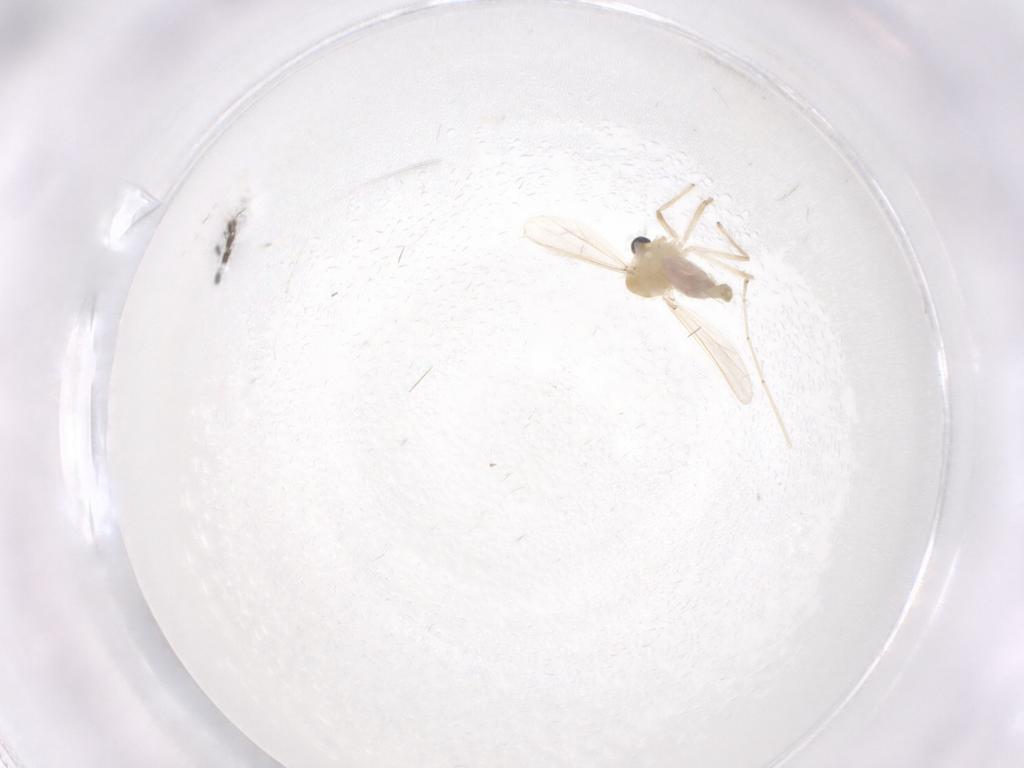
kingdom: Animalia
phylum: Arthropoda
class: Insecta
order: Diptera
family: Chironomidae
